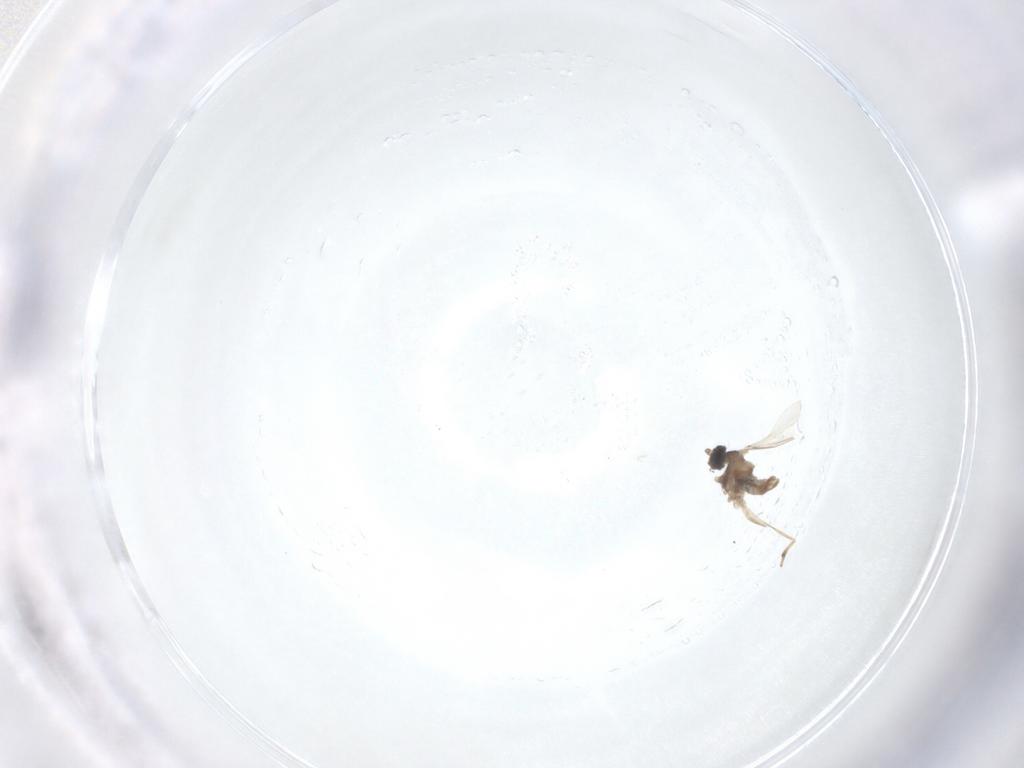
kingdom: Animalia
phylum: Arthropoda
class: Insecta
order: Diptera
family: Cecidomyiidae
